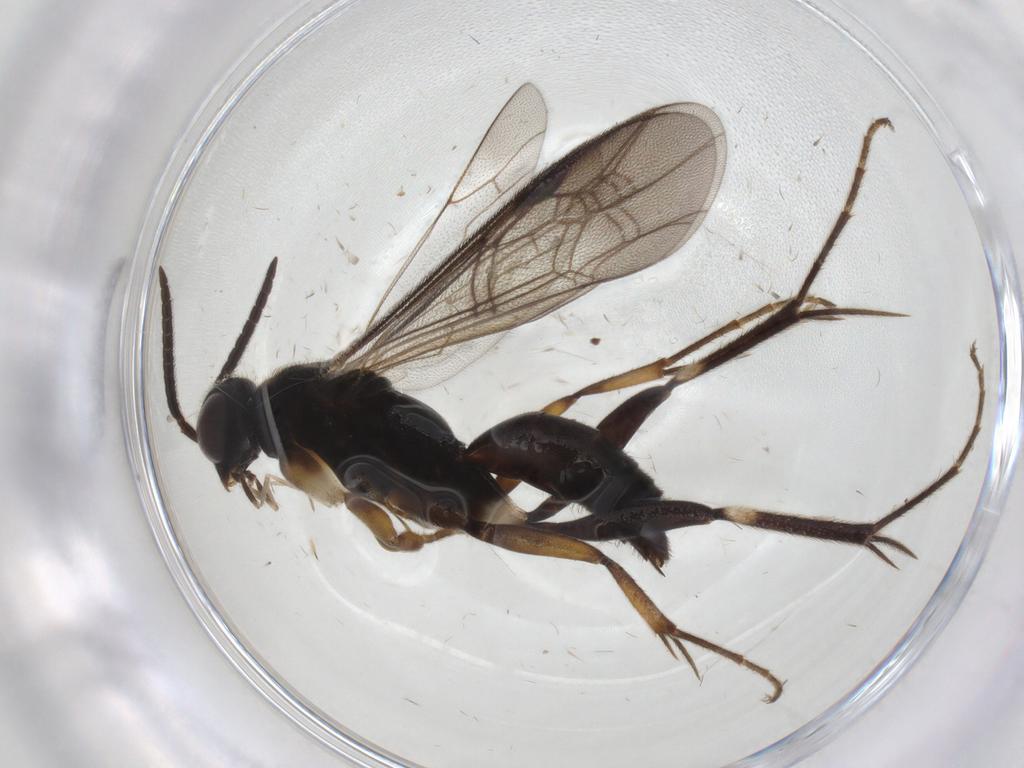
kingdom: Animalia
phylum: Arthropoda
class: Insecta
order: Hymenoptera
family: Pompilidae
